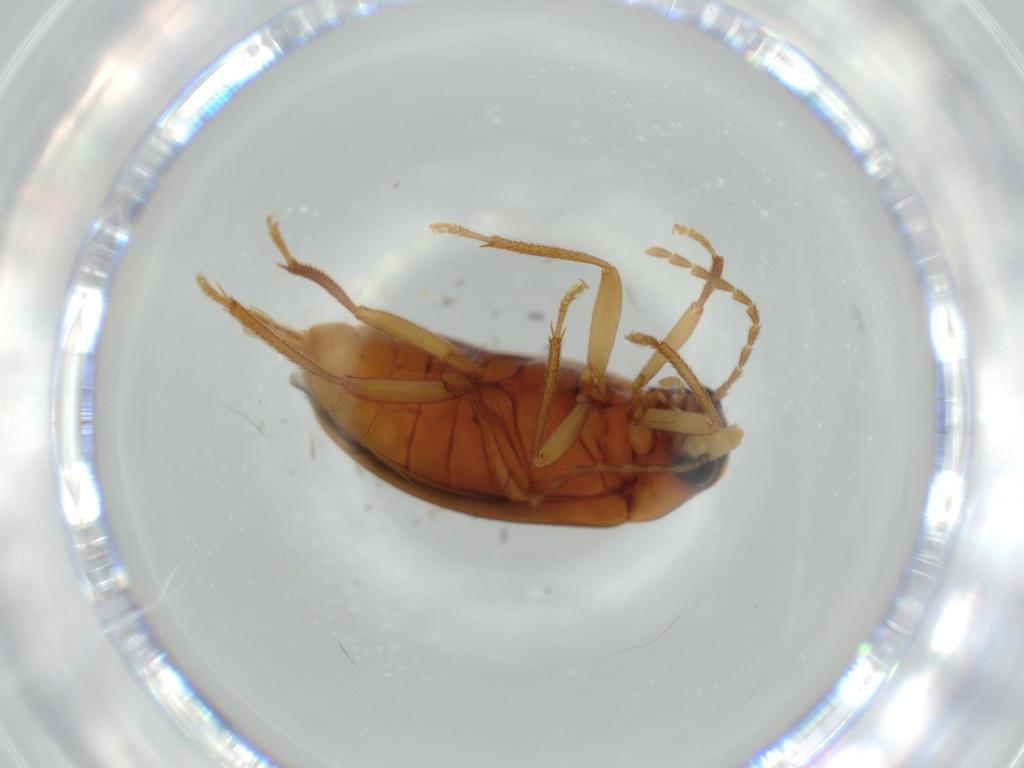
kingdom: Animalia
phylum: Arthropoda
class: Insecta
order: Coleoptera
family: Ptilodactylidae
